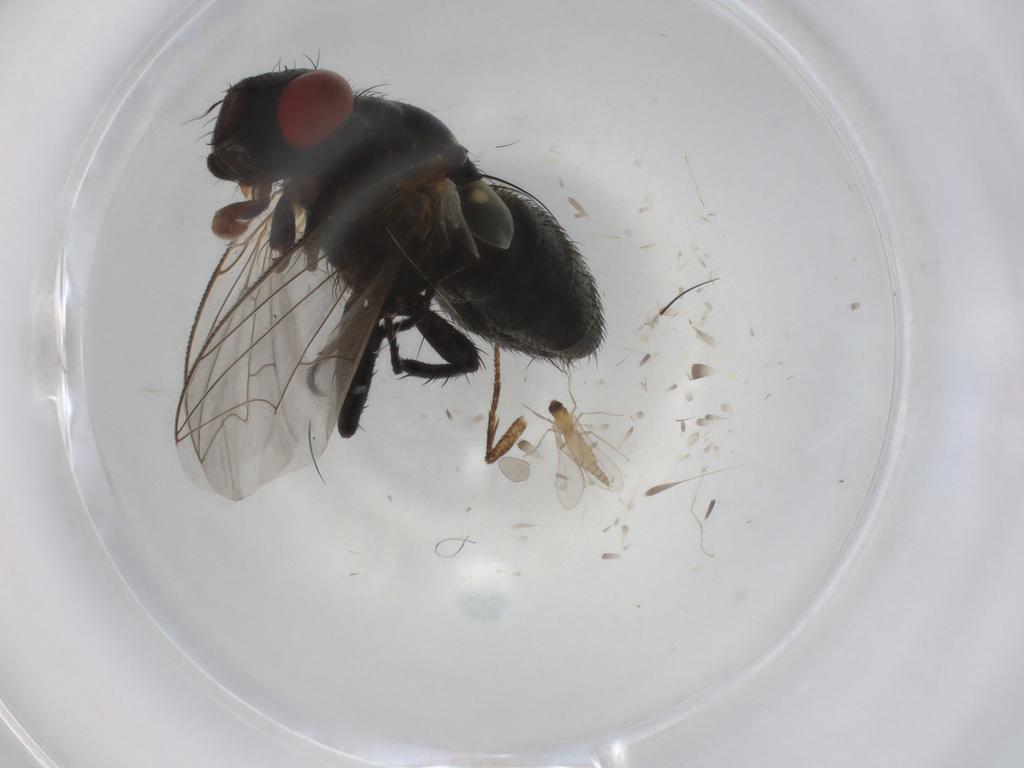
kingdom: Animalia
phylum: Arthropoda
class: Insecta
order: Diptera
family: Sarcophagidae
